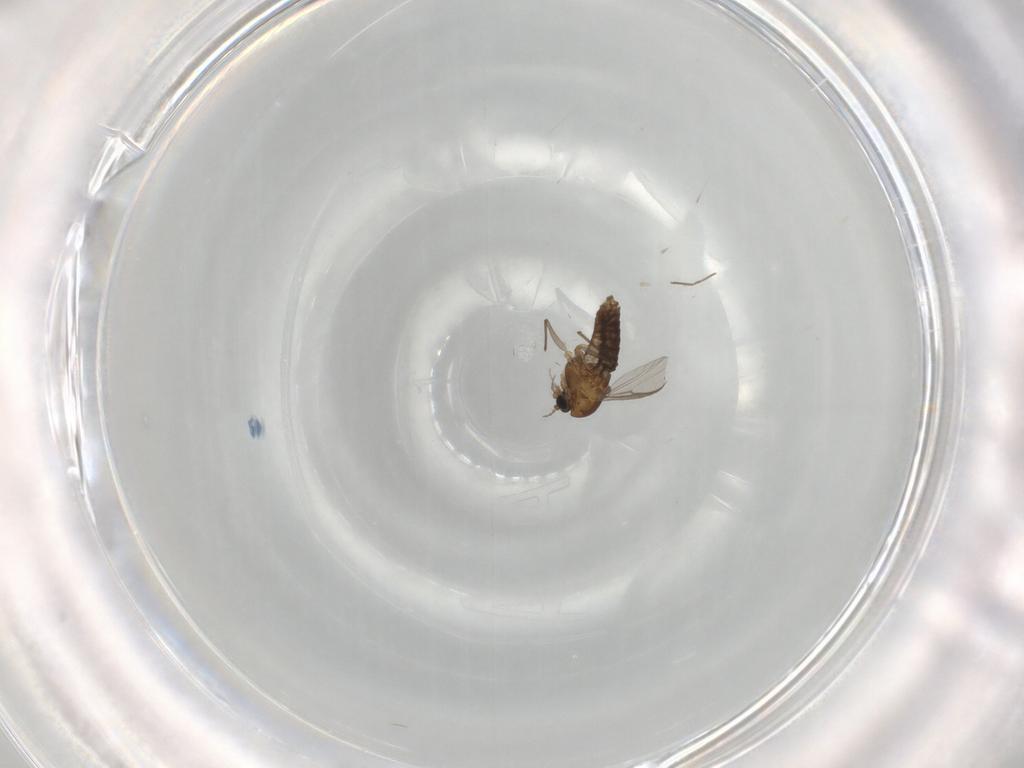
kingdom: Animalia
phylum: Arthropoda
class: Insecta
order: Diptera
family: Chironomidae
